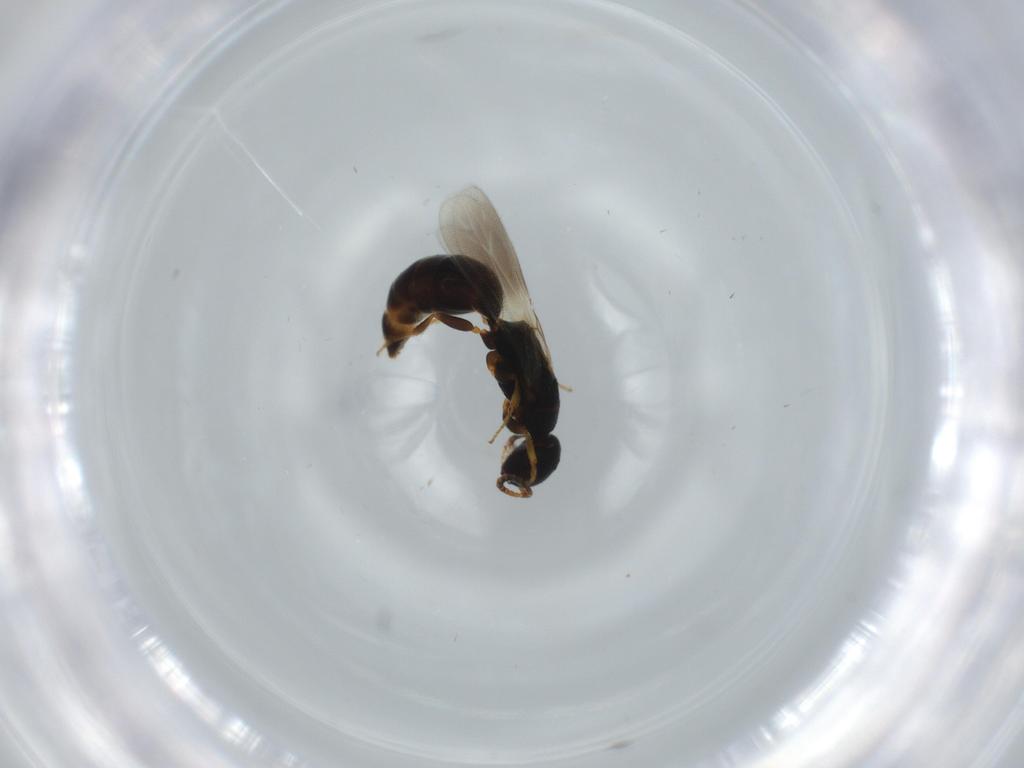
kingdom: Animalia
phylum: Arthropoda
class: Insecta
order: Hymenoptera
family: Bethylidae
